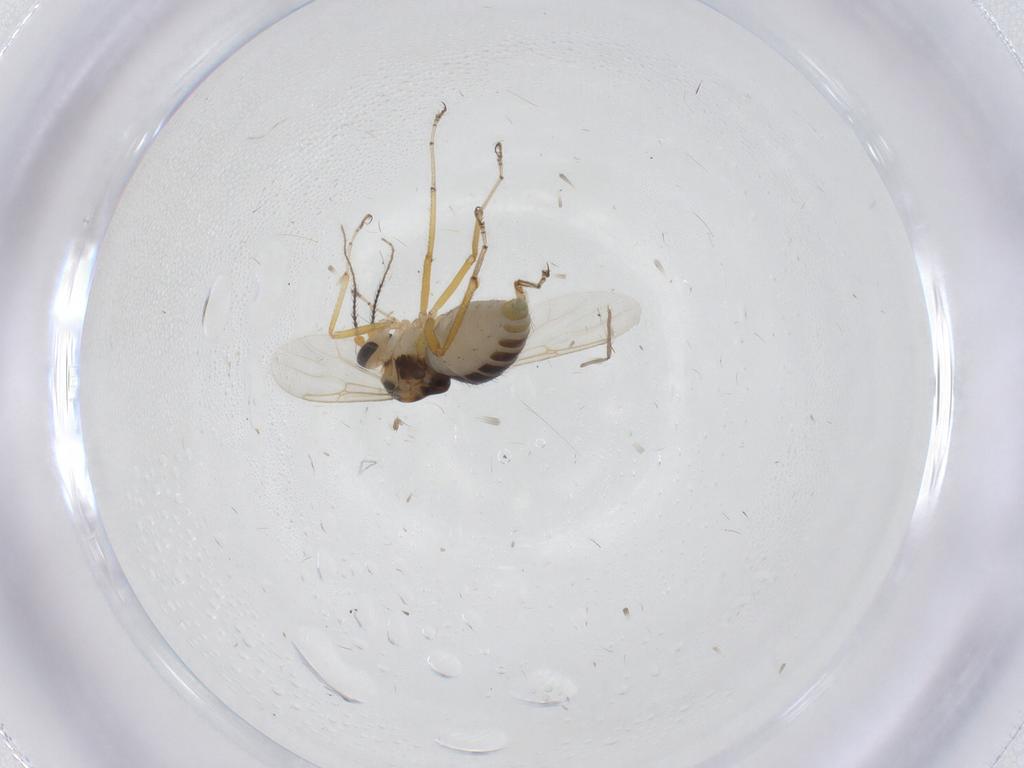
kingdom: Animalia
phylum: Arthropoda
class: Insecta
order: Diptera
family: Ceratopogonidae
